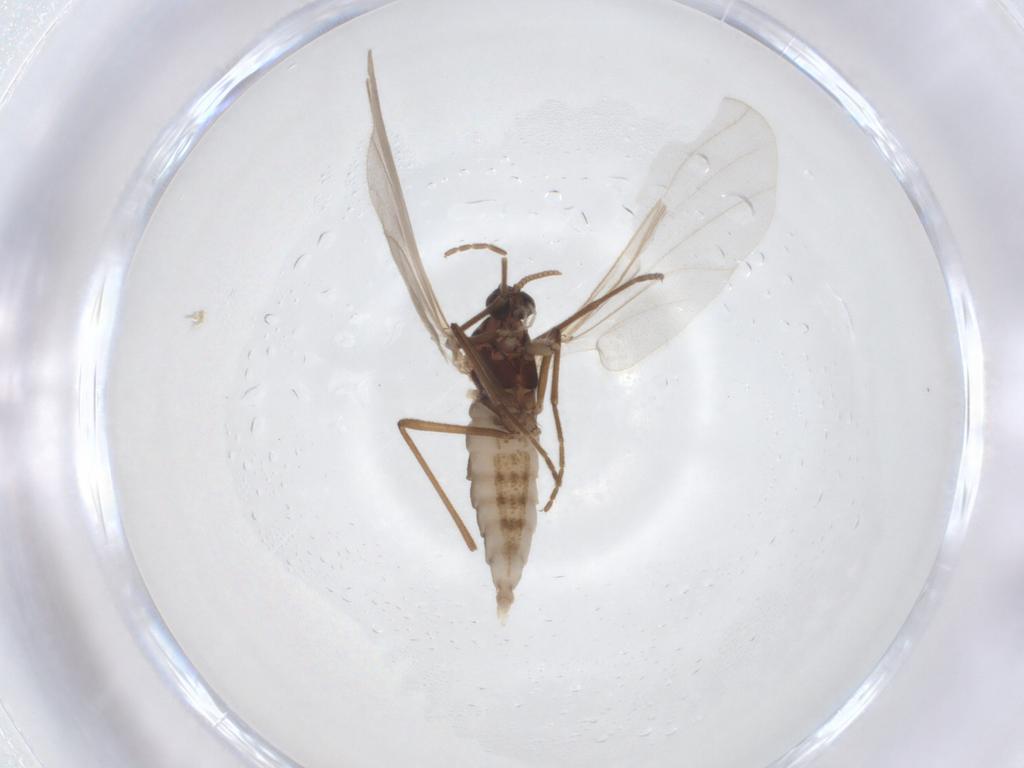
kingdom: Animalia
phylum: Arthropoda
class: Insecta
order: Diptera
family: Cecidomyiidae
